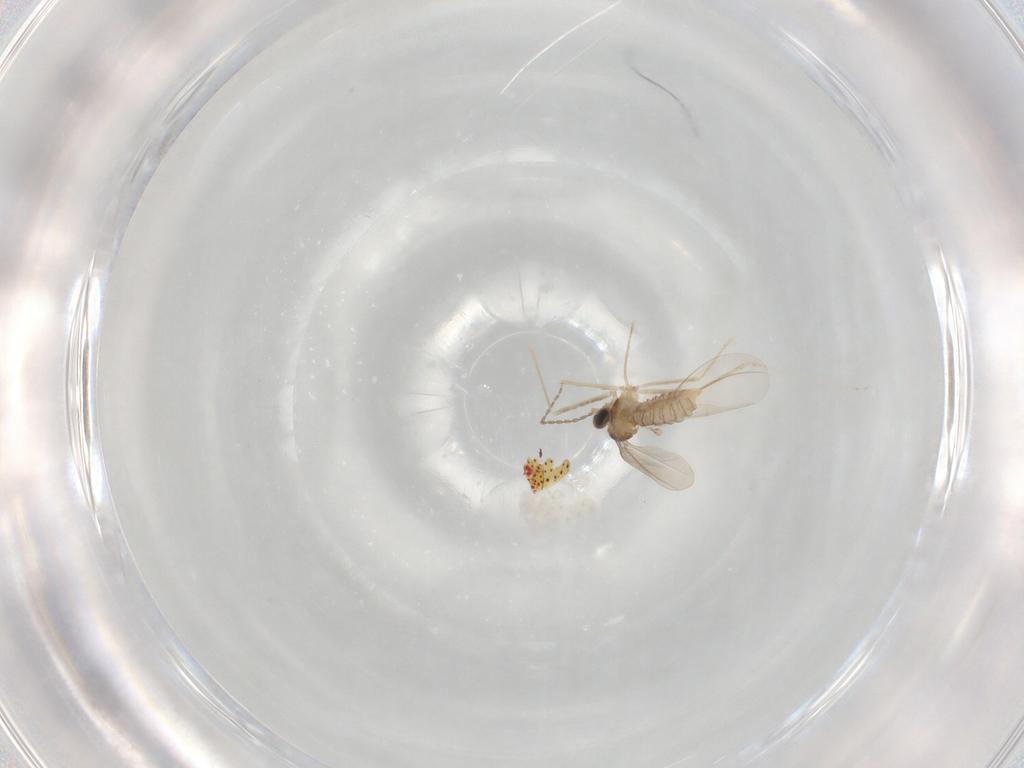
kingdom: Animalia
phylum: Arthropoda
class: Insecta
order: Diptera
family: Cecidomyiidae
